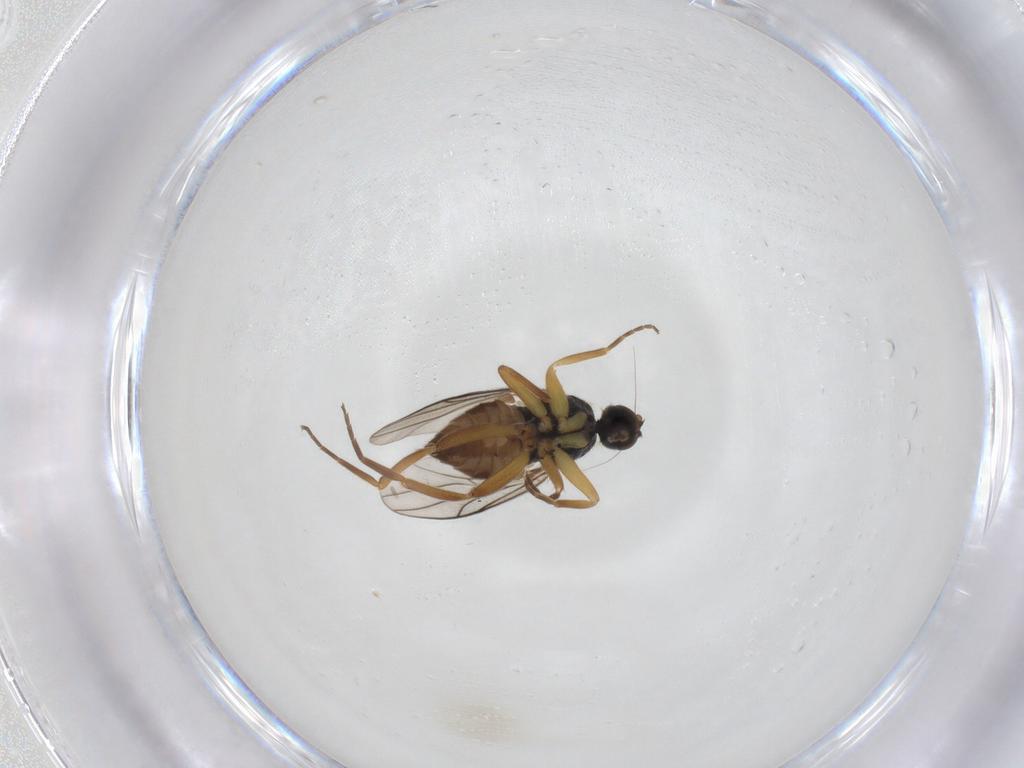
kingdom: Animalia
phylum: Arthropoda
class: Insecta
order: Diptera
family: Hybotidae
